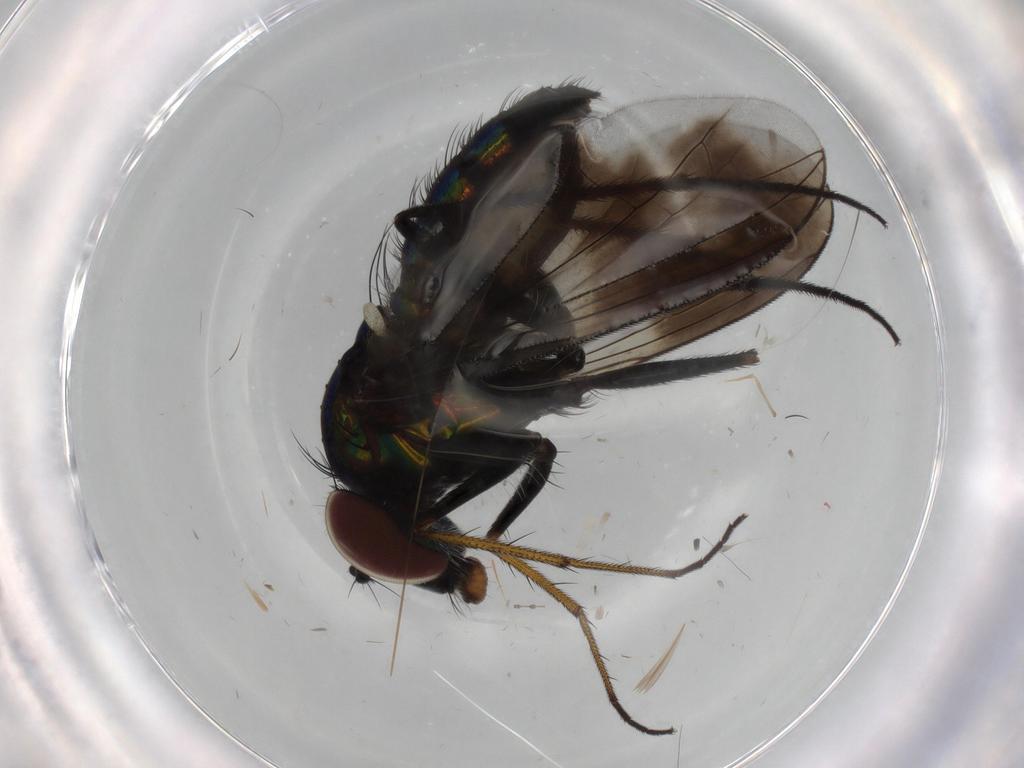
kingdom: Animalia
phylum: Arthropoda
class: Insecta
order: Diptera
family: Dolichopodidae
